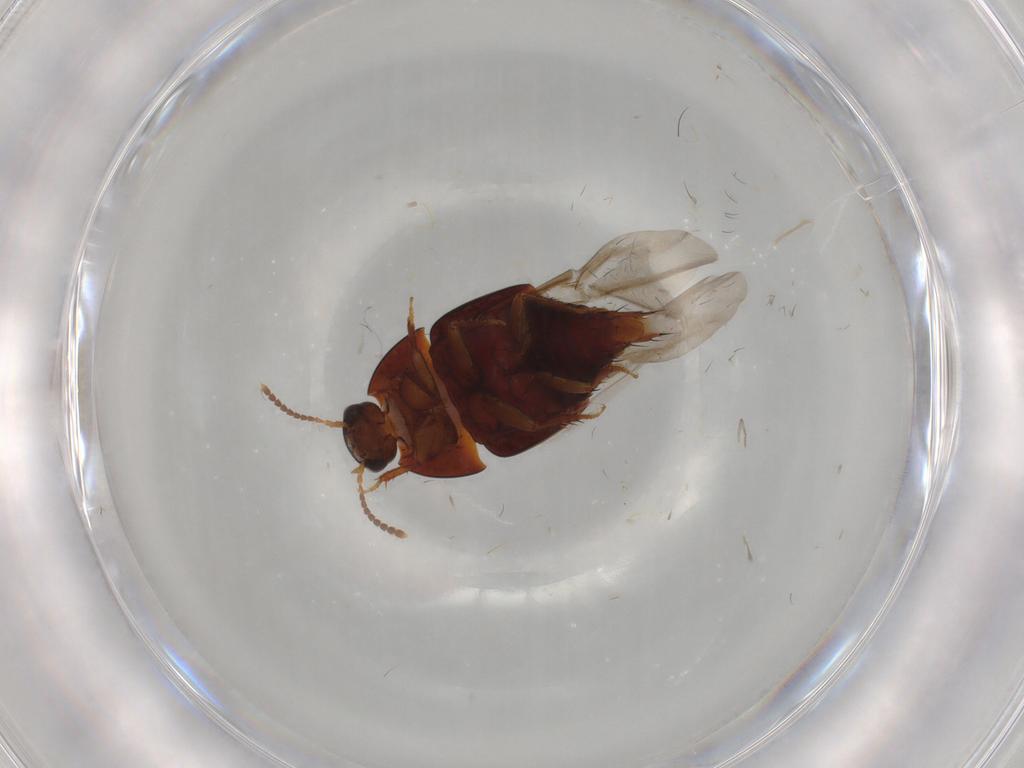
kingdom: Animalia
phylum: Arthropoda
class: Insecta
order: Coleoptera
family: Staphylinidae
